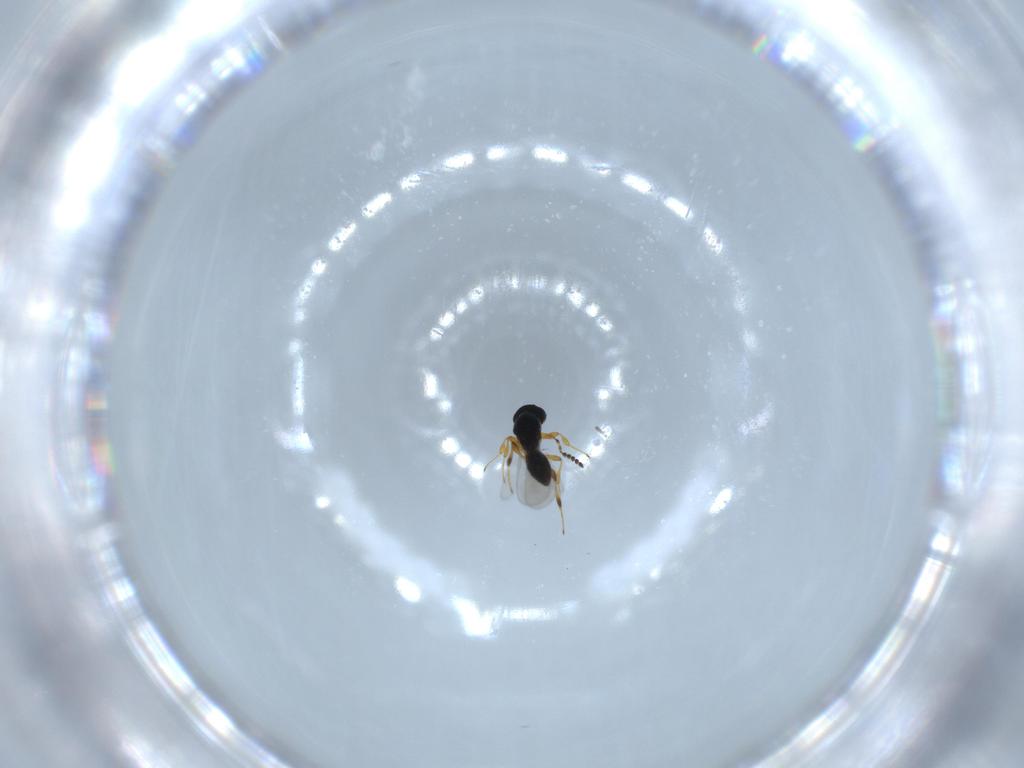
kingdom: Animalia
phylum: Arthropoda
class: Insecta
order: Hymenoptera
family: Platygastridae
